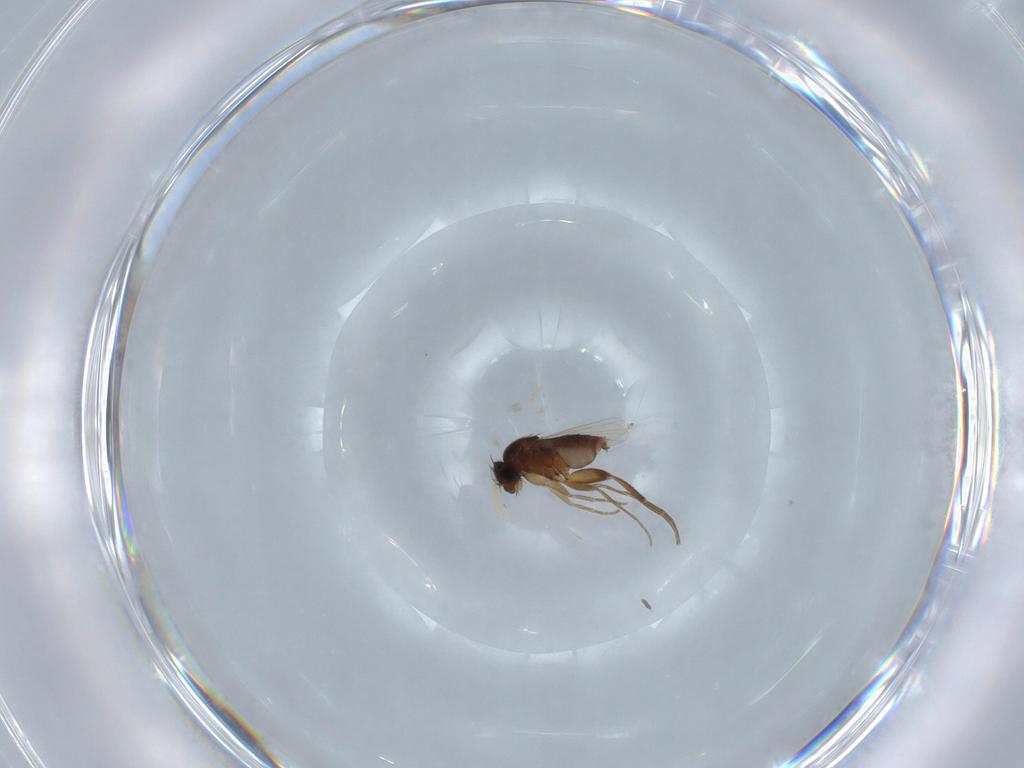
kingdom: Animalia
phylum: Arthropoda
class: Insecta
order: Diptera
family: Phoridae
